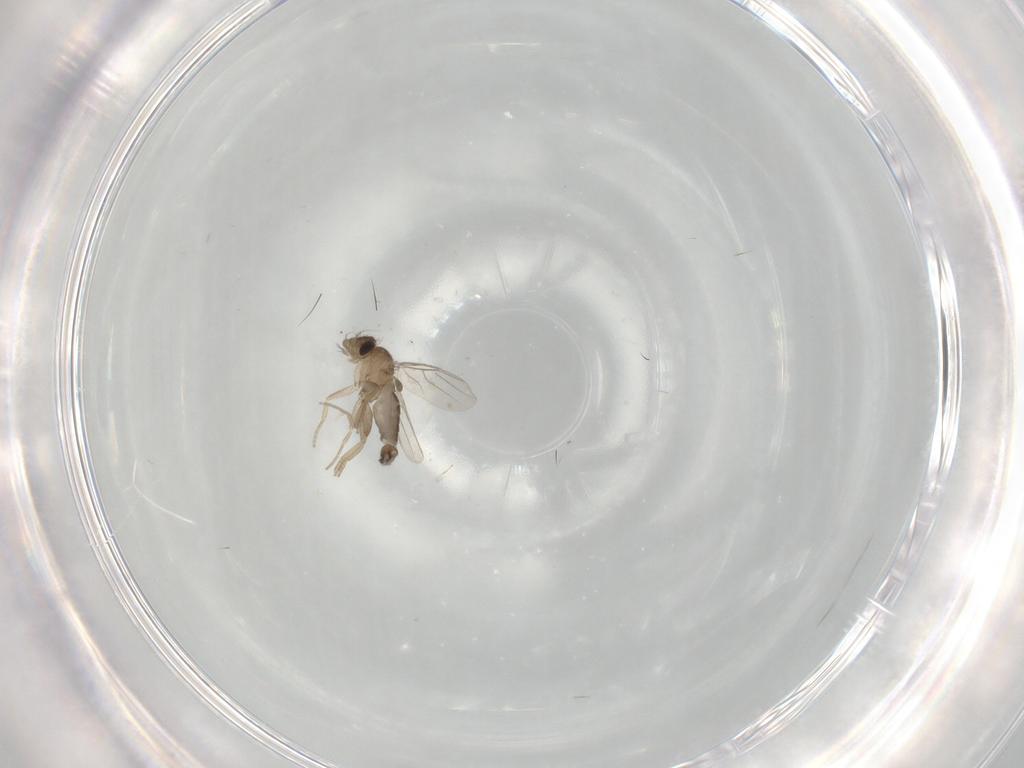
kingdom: Animalia
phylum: Arthropoda
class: Insecta
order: Diptera
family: Phoridae
